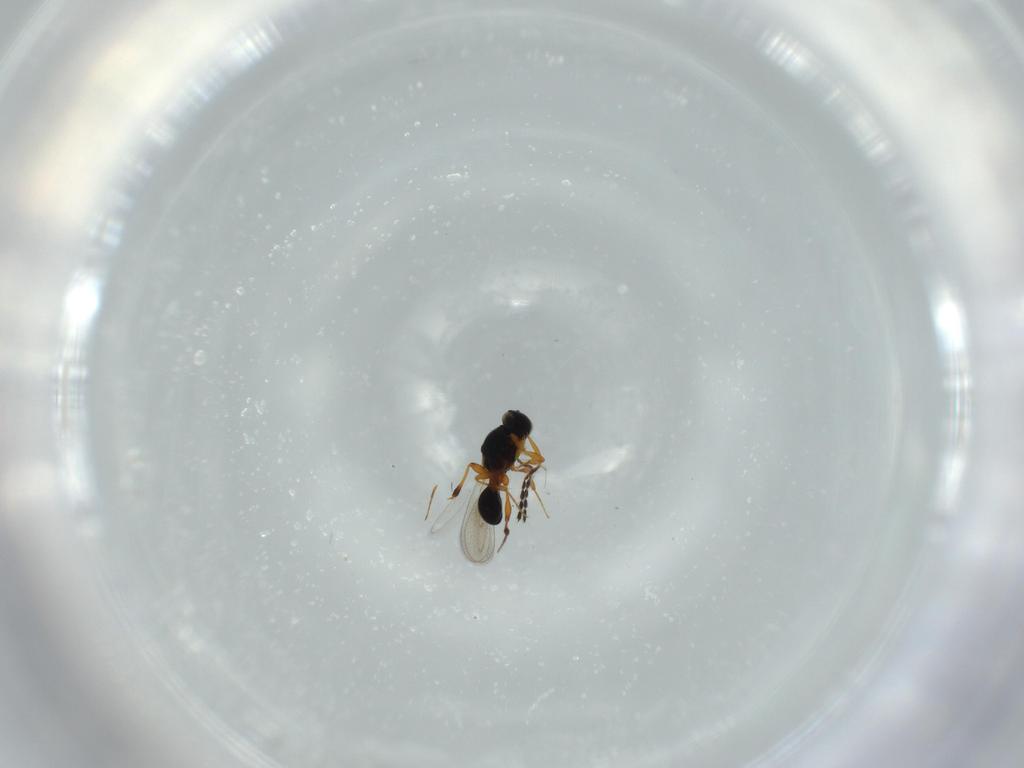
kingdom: Animalia
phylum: Arthropoda
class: Insecta
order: Hymenoptera
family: Platygastridae
